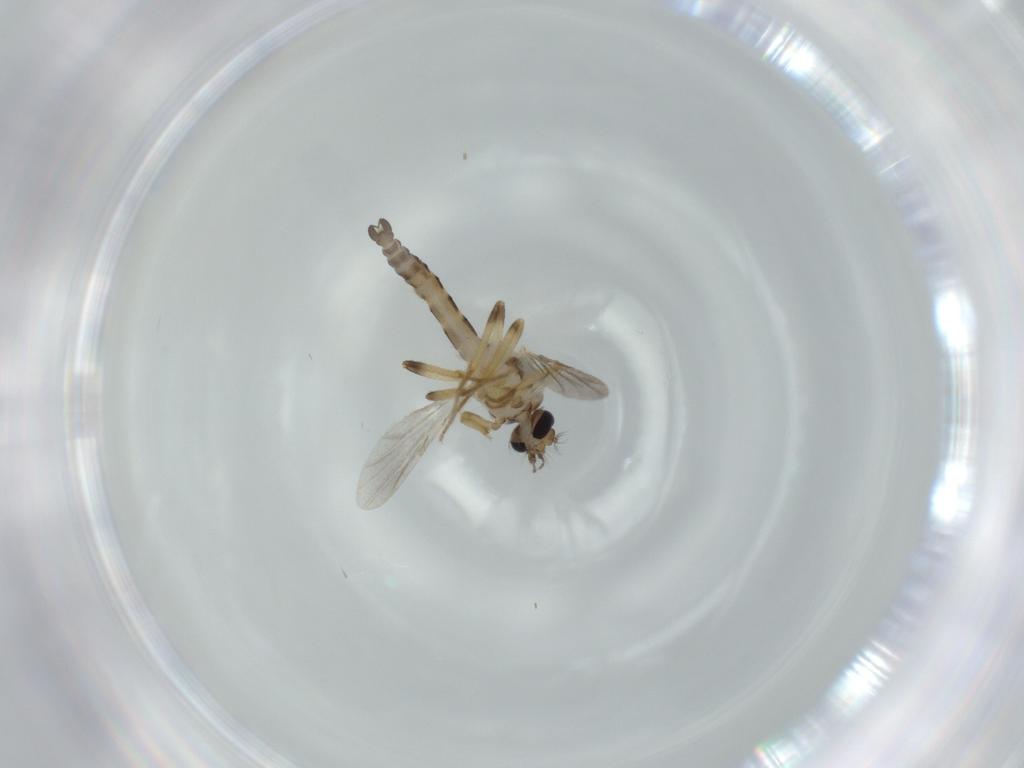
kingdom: Animalia
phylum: Arthropoda
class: Insecta
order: Diptera
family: Ceratopogonidae
